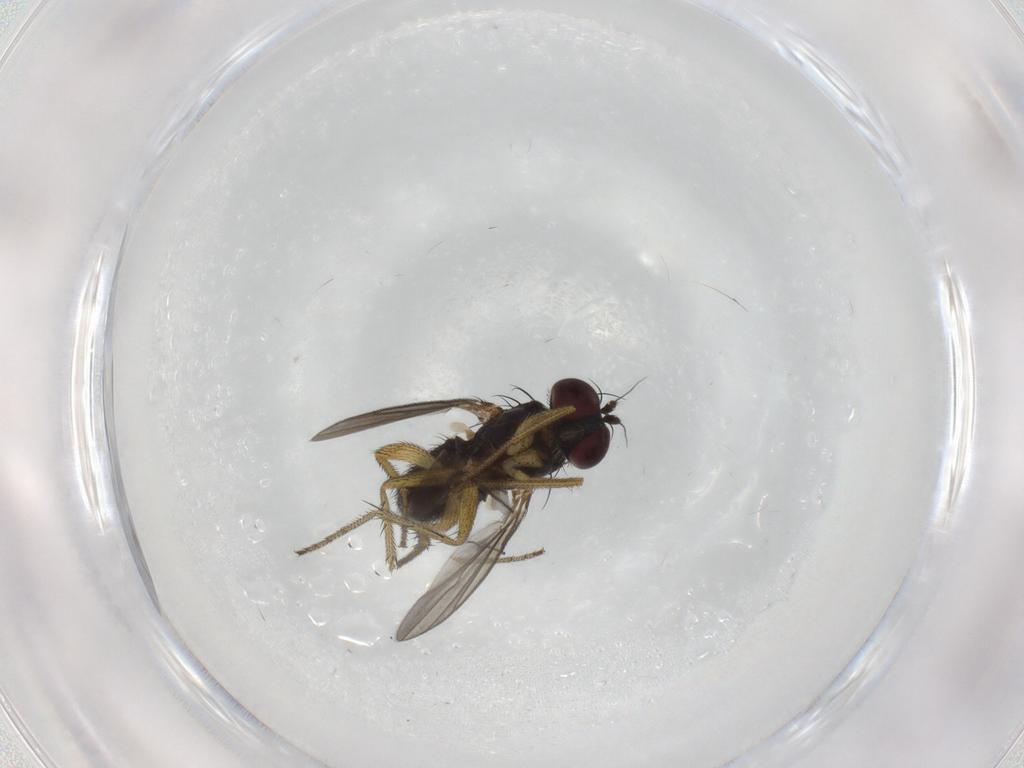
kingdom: Animalia
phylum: Arthropoda
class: Insecta
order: Diptera
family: Dolichopodidae
